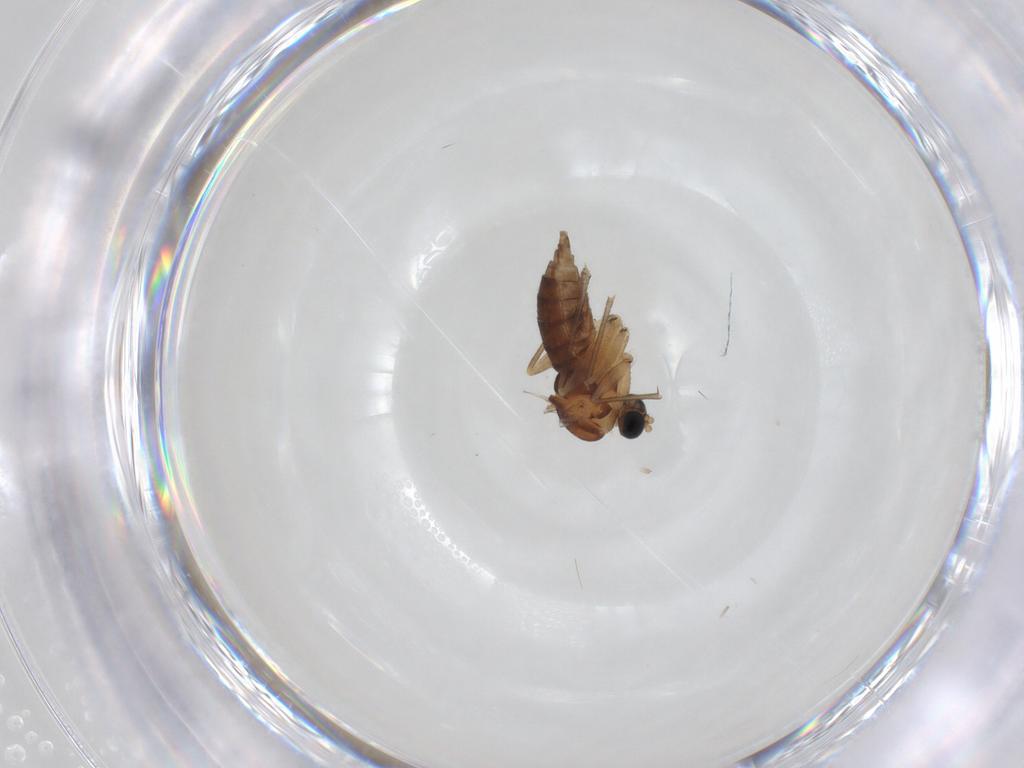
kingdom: Animalia
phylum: Arthropoda
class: Insecta
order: Diptera
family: Sciaridae
